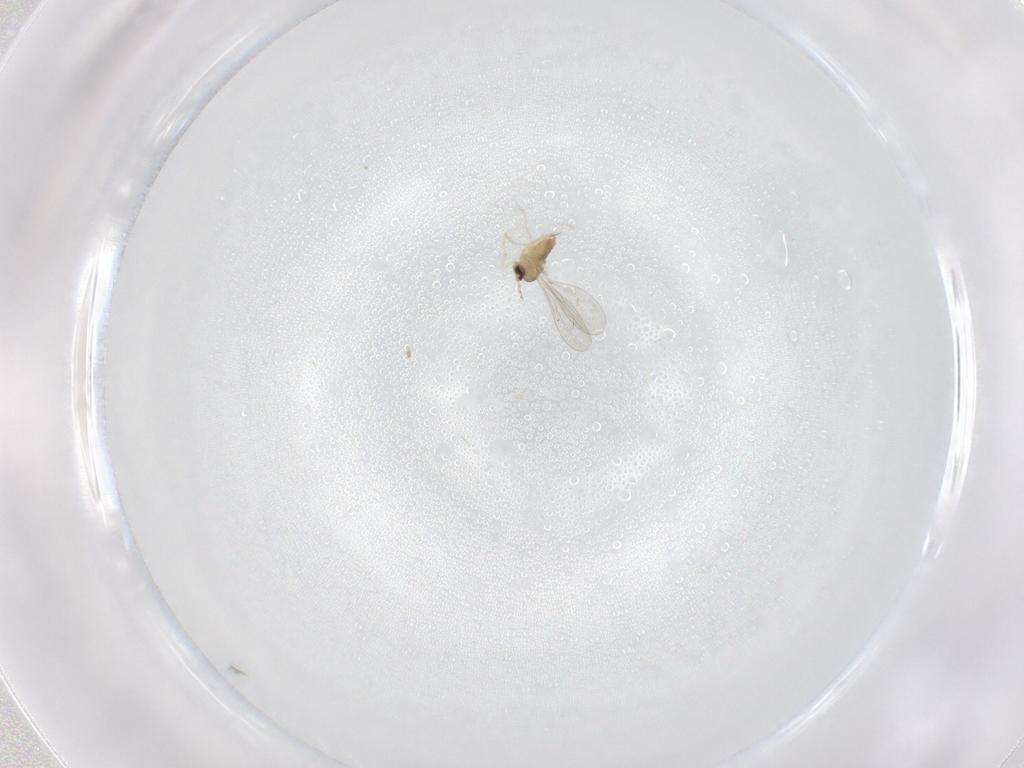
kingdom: Animalia
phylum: Arthropoda
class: Insecta
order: Diptera
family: Cecidomyiidae
